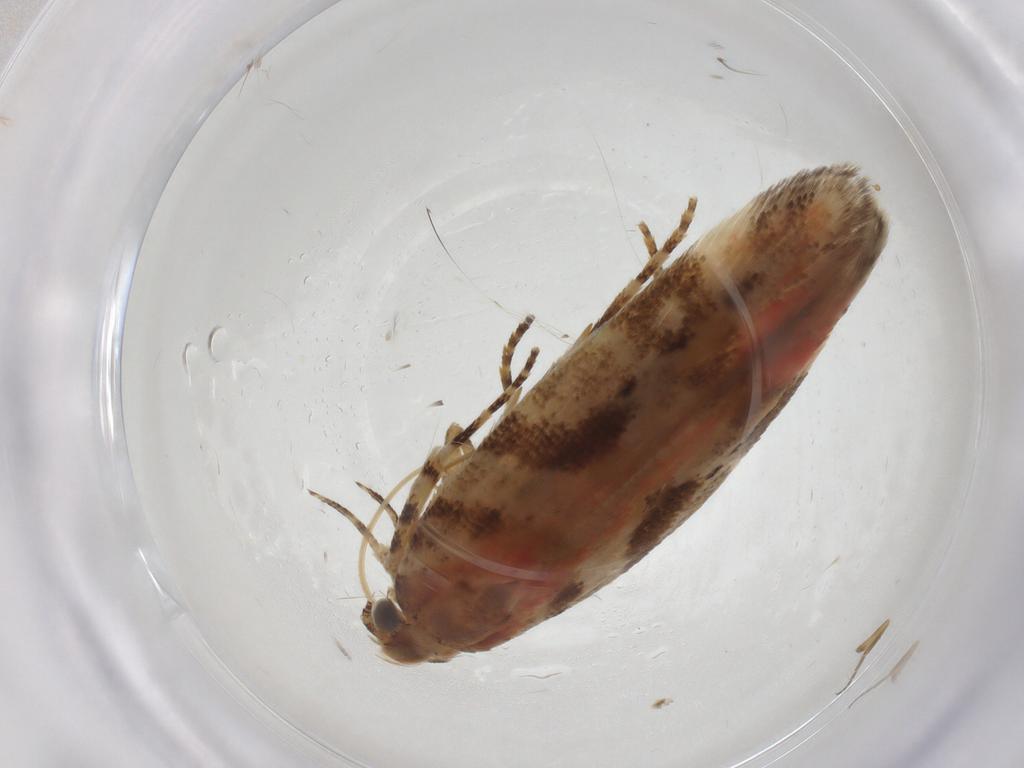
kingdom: Animalia
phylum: Arthropoda
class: Insecta
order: Lepidoptera
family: Gelechiidae
